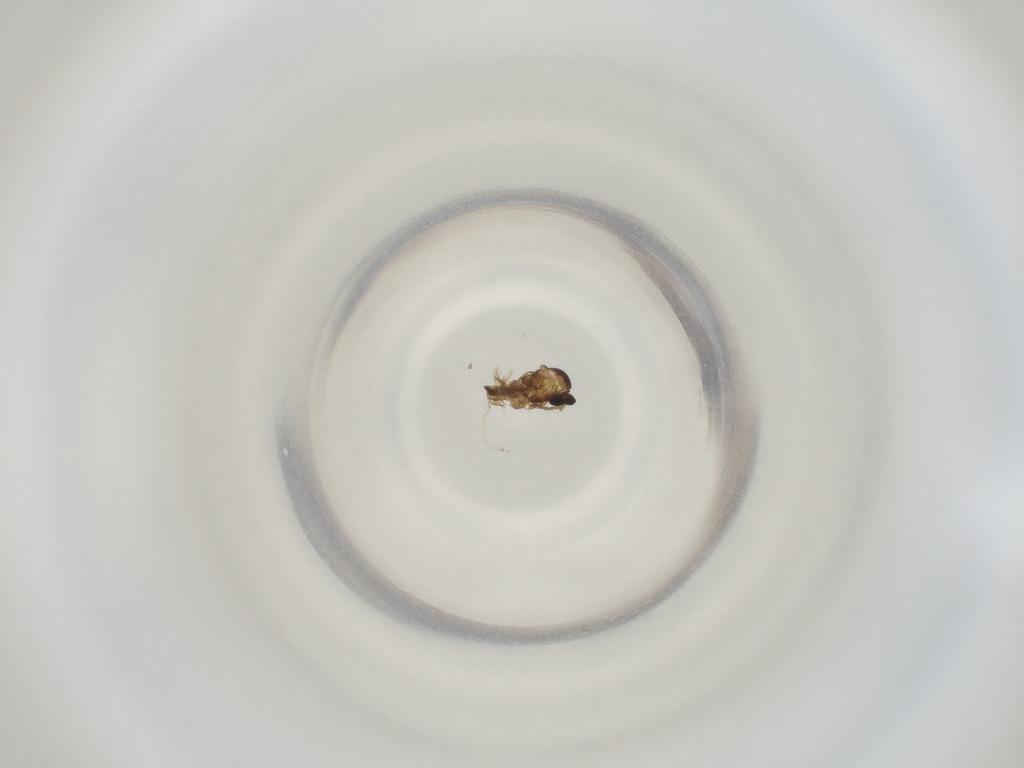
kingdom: Animalia
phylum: Arthropoda
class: Insecta
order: Diptera
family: Cecidomyiidae
